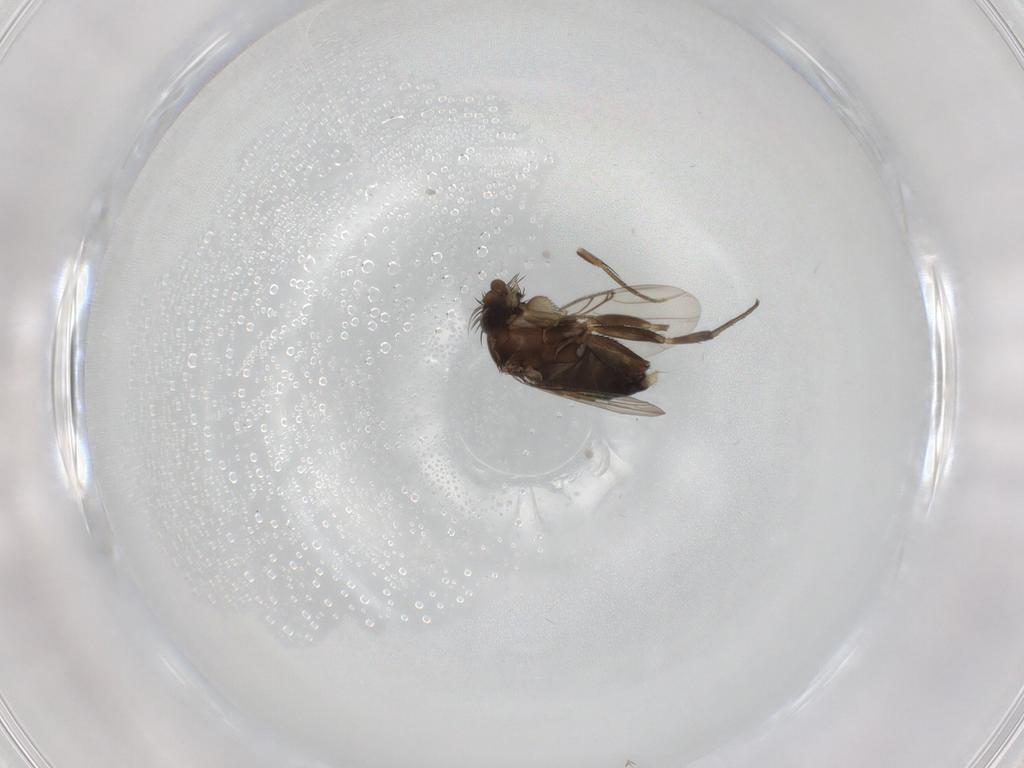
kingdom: Animalia
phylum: Arthropoda
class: Insecta
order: Diptera
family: Phoridae
